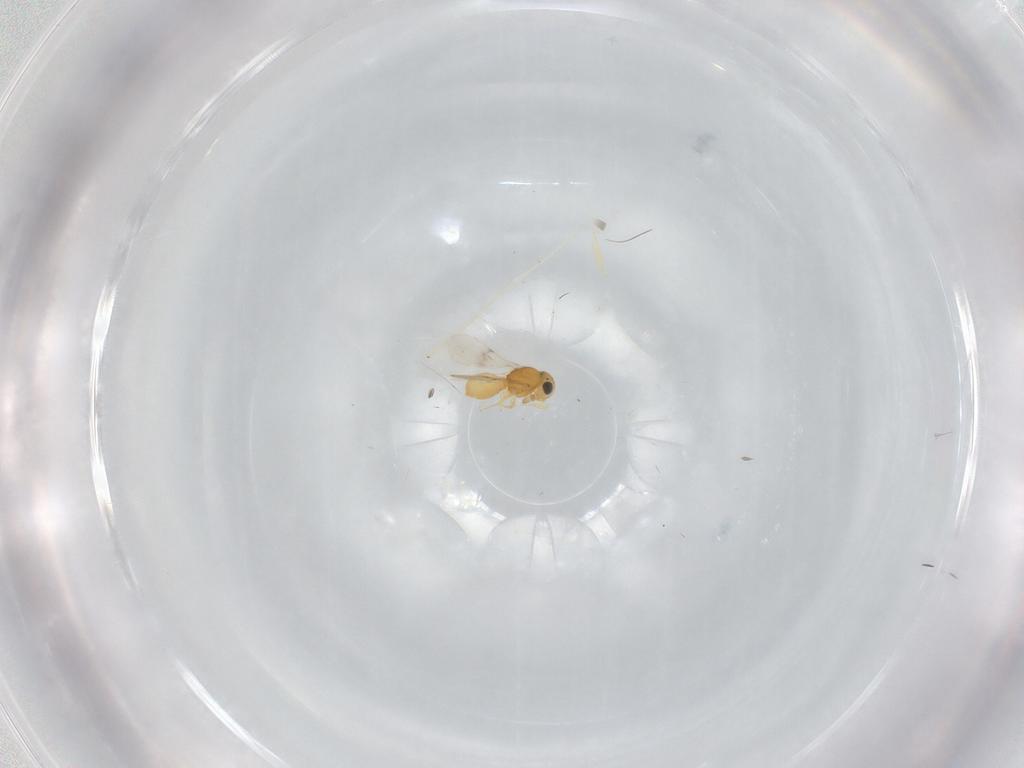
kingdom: Animalia
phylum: Arthropoda
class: Insecta
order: Hymenoptera
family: Scelionidae
